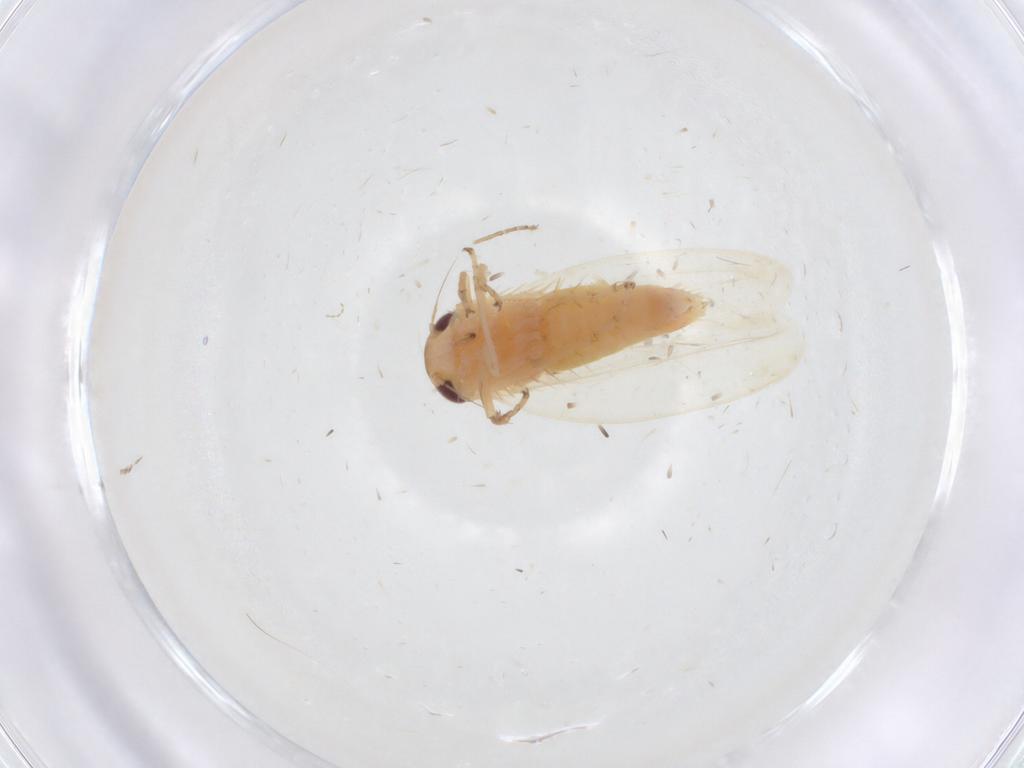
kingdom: Animalia
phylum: Arthropoda
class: Insecta
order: Hemiptera
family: Cicadellidae
